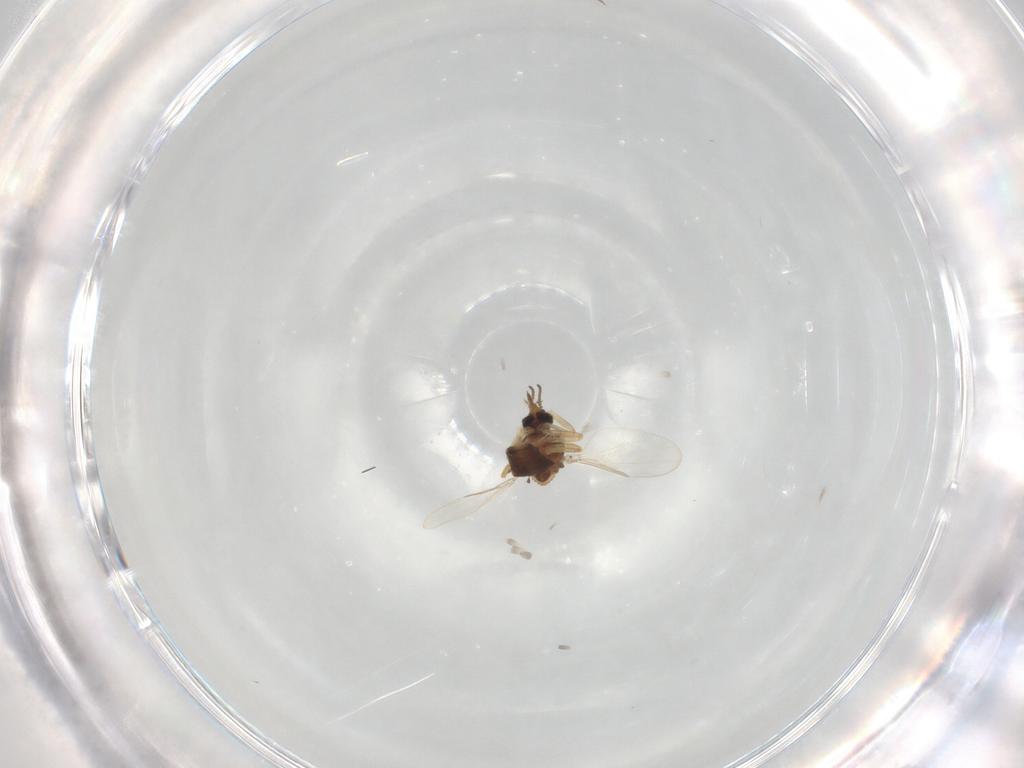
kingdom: Animalia
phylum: Arthropoda
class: Insecta
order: Diptera
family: Ceratopogonidae
